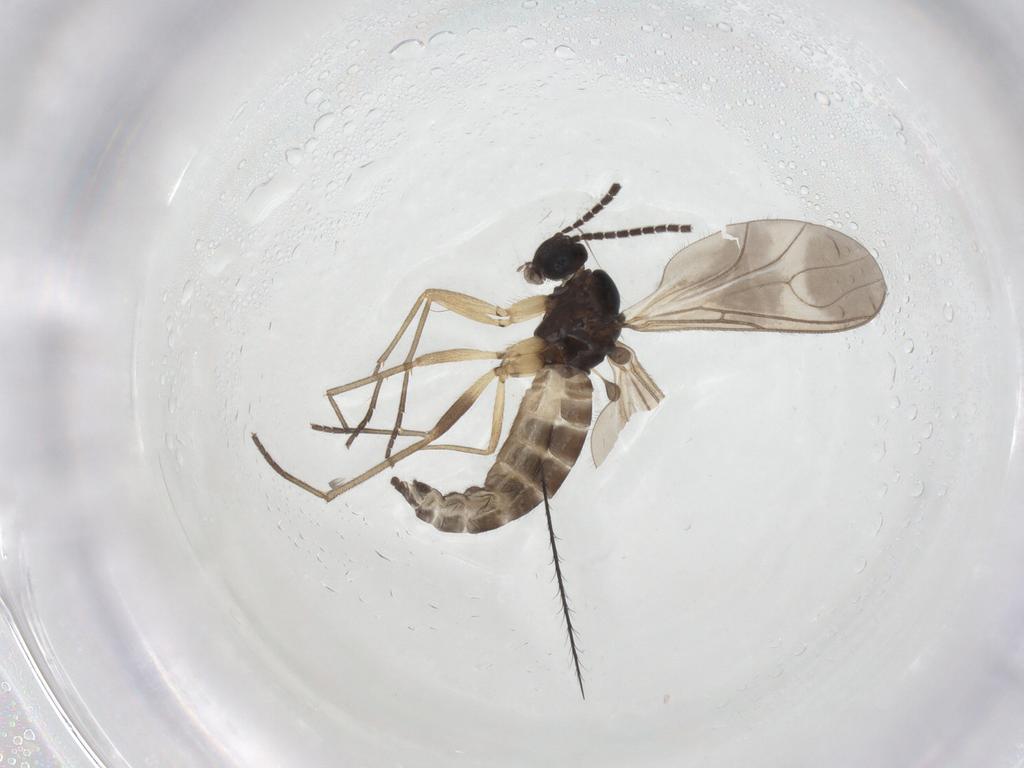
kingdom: Animalia
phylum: Arthropoda
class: Insecta
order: Diptera
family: Sciaridae
